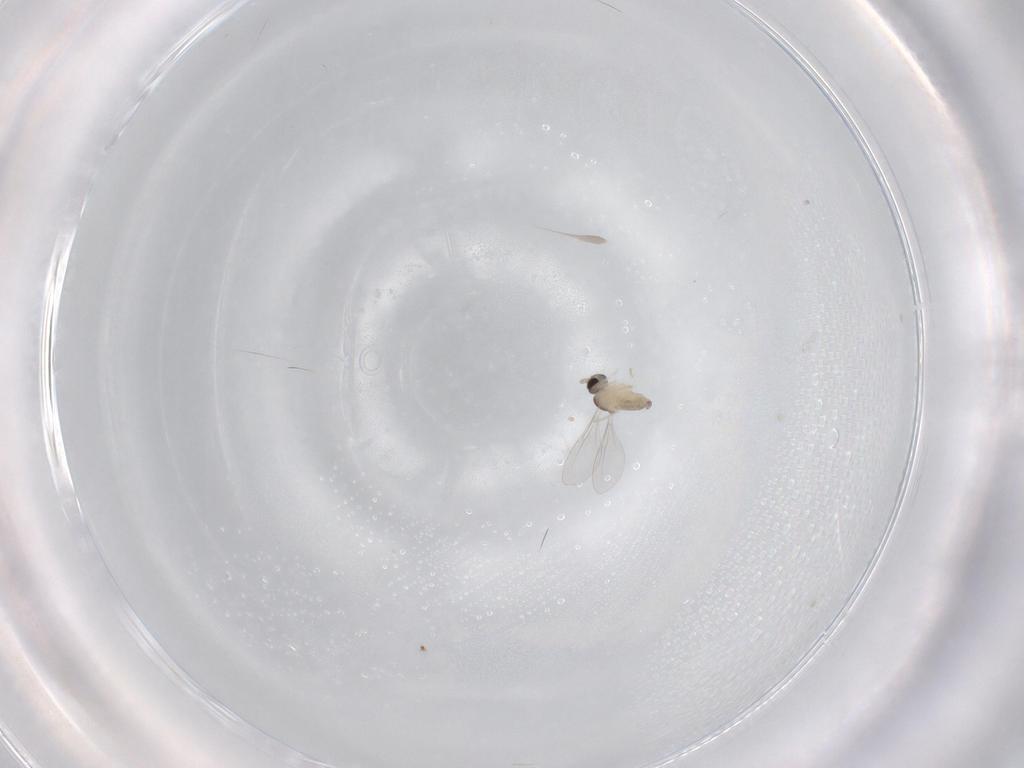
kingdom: Animalia
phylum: Arthropoda
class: Insecta
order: Diptera
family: Cecidomyiidae
